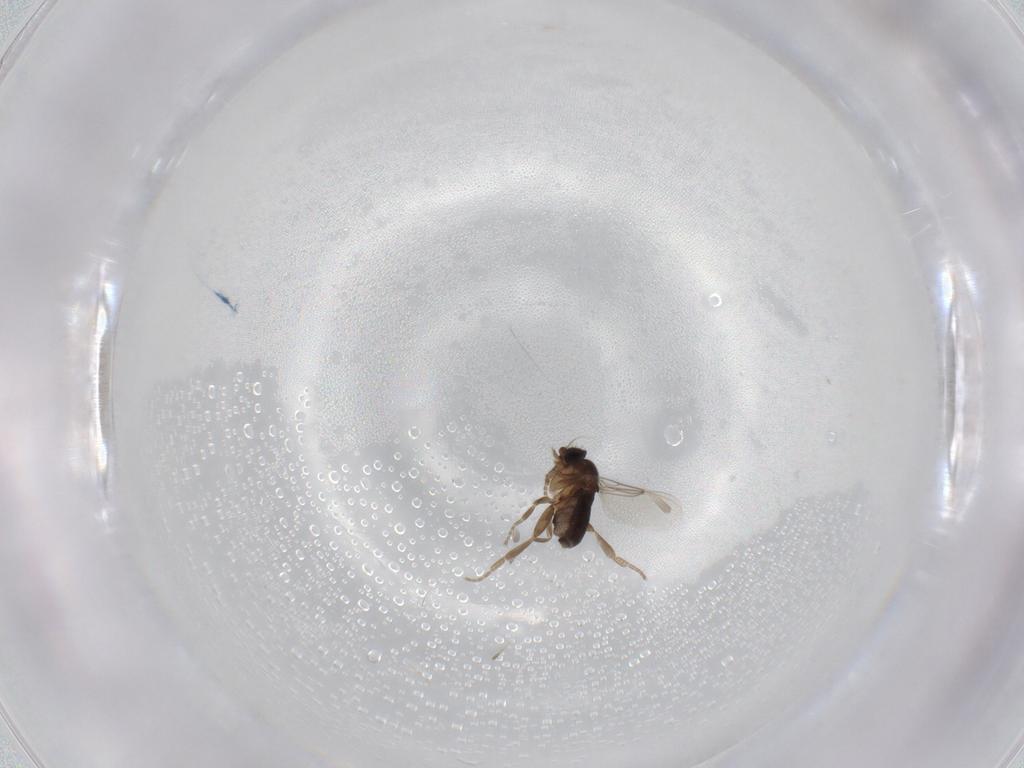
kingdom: Animalia
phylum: Arthropoda
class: Insecta
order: Diptera
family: Phoridae
